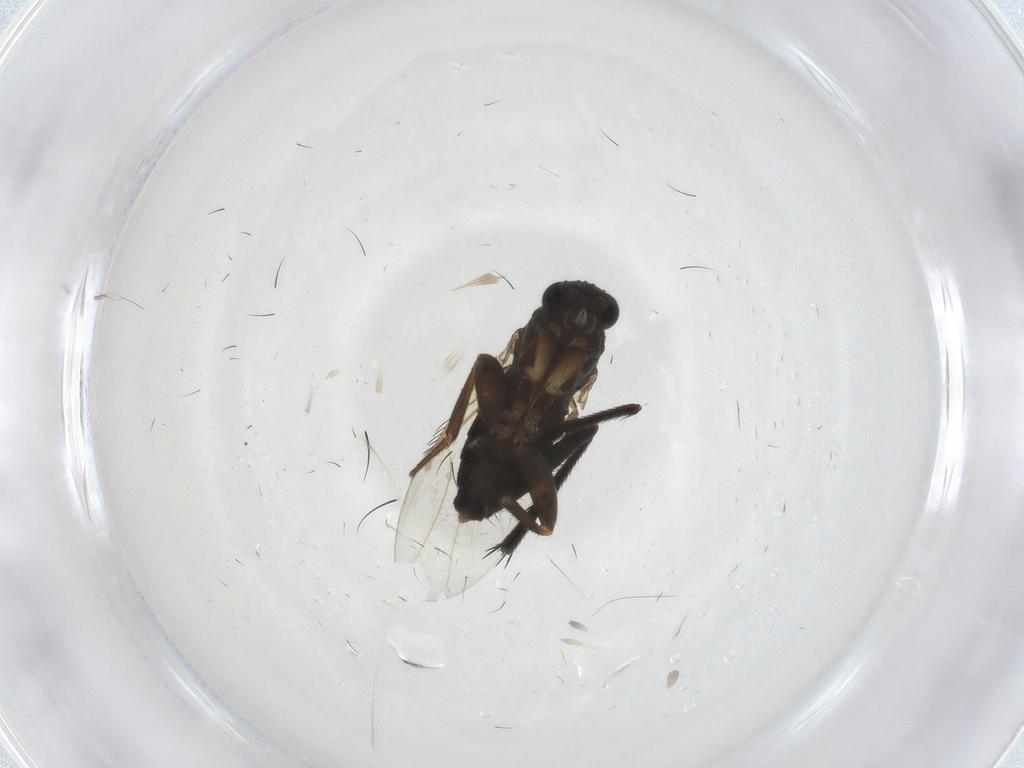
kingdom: Animalia
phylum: Arthropoda
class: Insecta
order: Diptera
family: Phoridae
